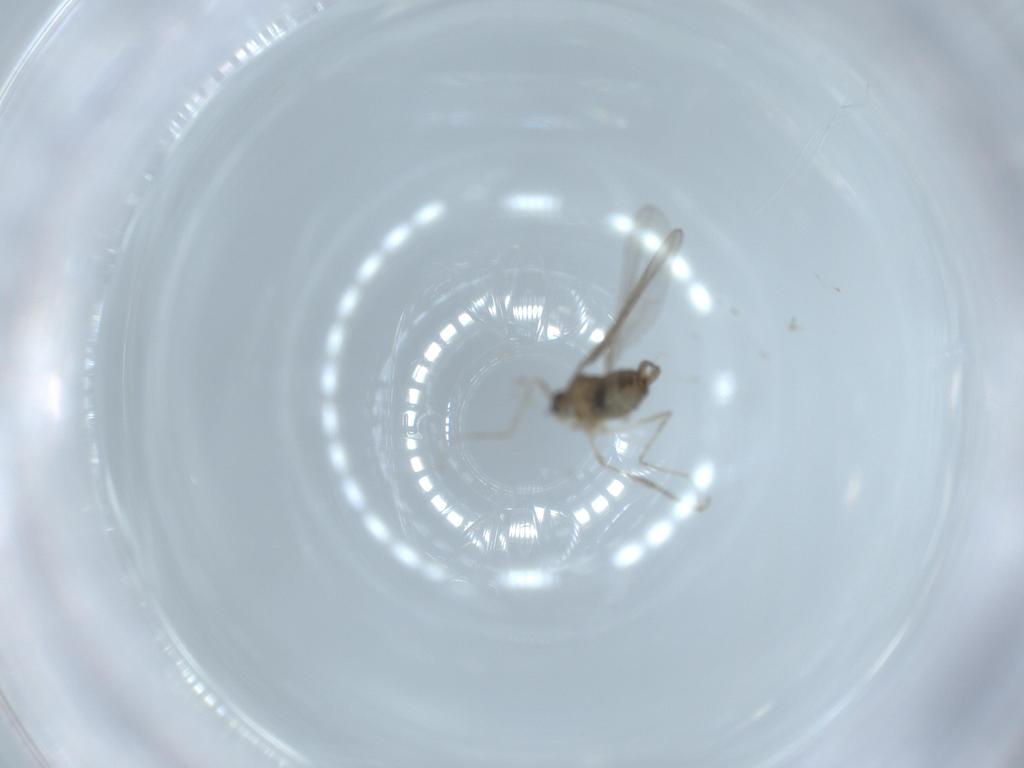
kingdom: Animalia
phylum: Arthropoda
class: Insecta
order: Diptera
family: Cecidomyiidae
